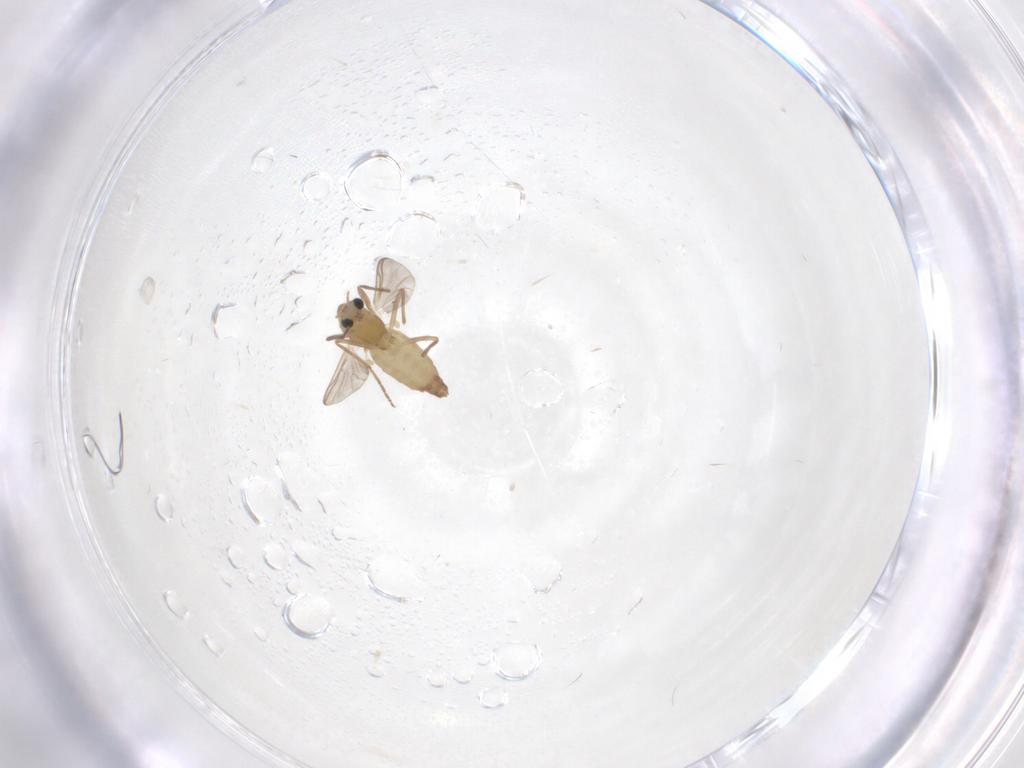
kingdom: Animalia
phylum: Arthropoda
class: Insecta
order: Diptera
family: Chironomidae
